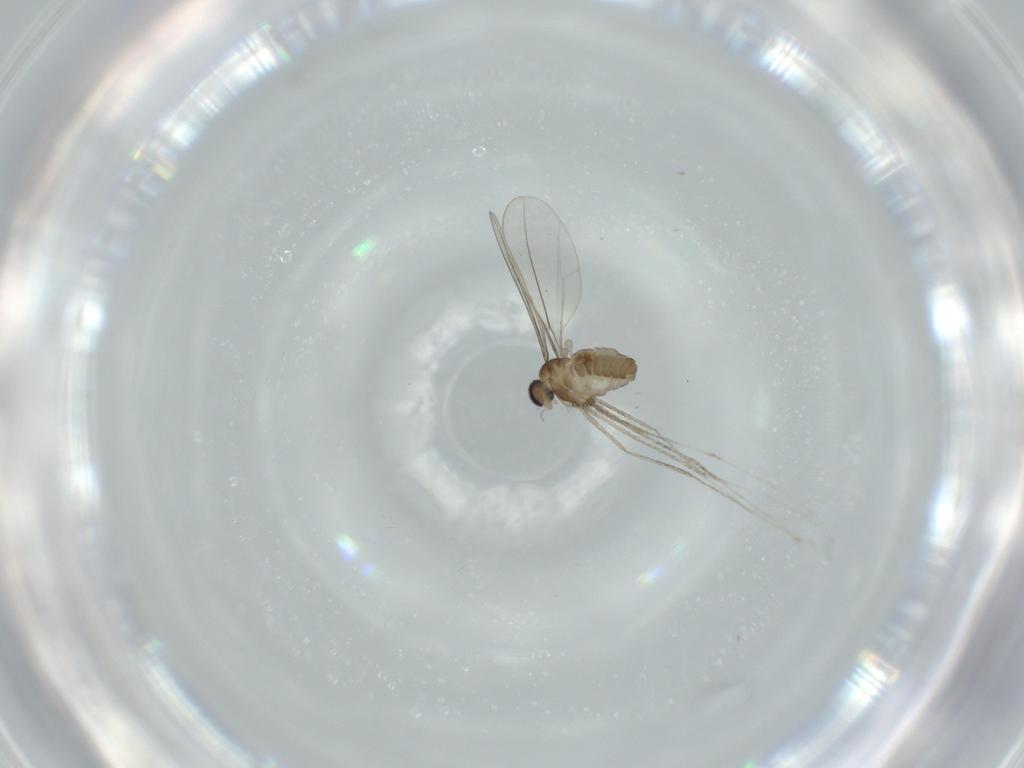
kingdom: Animalia
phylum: Arthropoda
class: Insecta
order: Diptera
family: Cecidomyiidae
